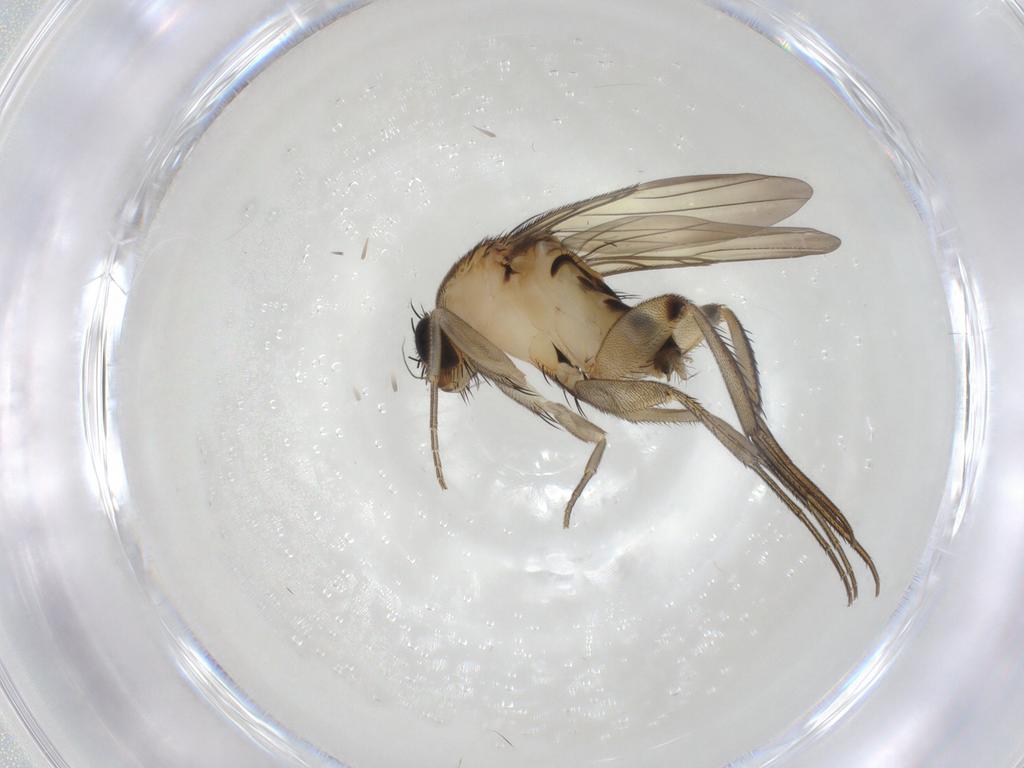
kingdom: Animalia
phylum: Arthropoda
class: Insecta
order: Diptera
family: Phoridae
